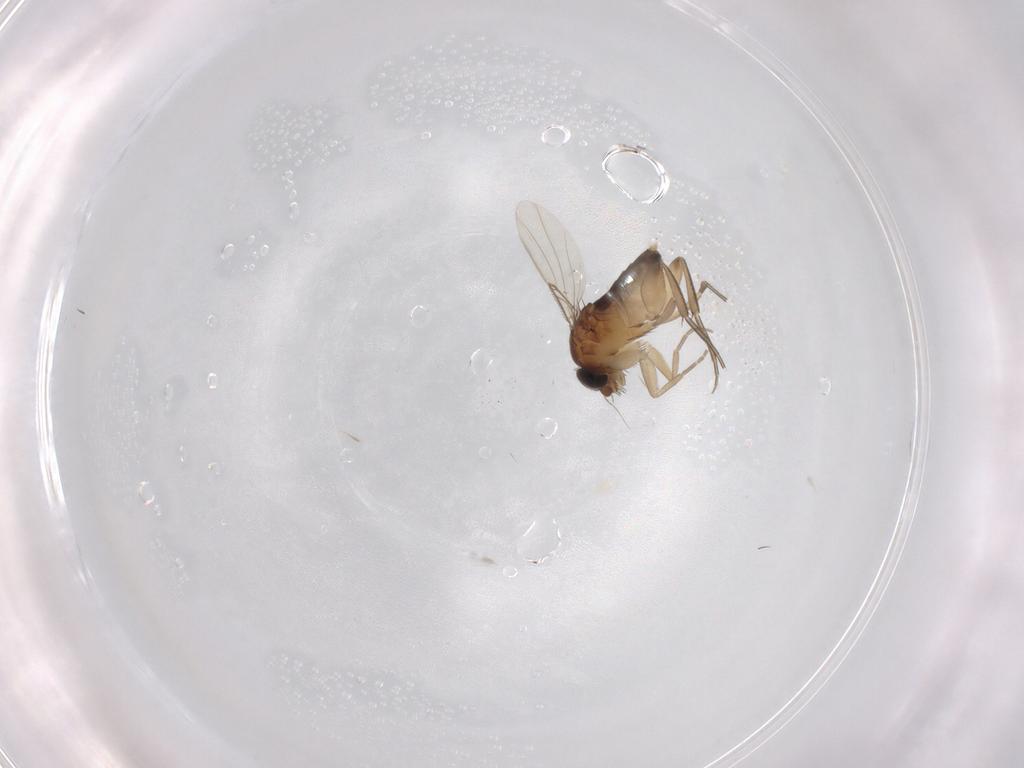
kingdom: Animalia
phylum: Arthropoda
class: Insecta
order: Diptera
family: Phoridae
